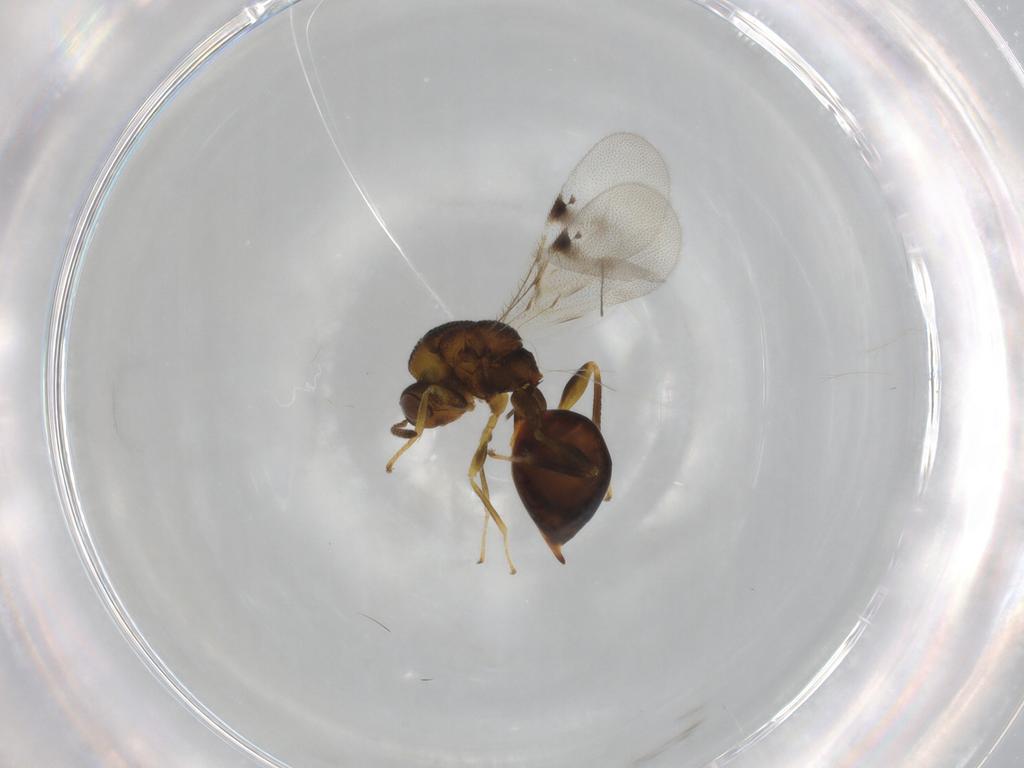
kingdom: Animalia
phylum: Arthropoda
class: Insecta
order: Hymenoptera
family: Eurytomidae
